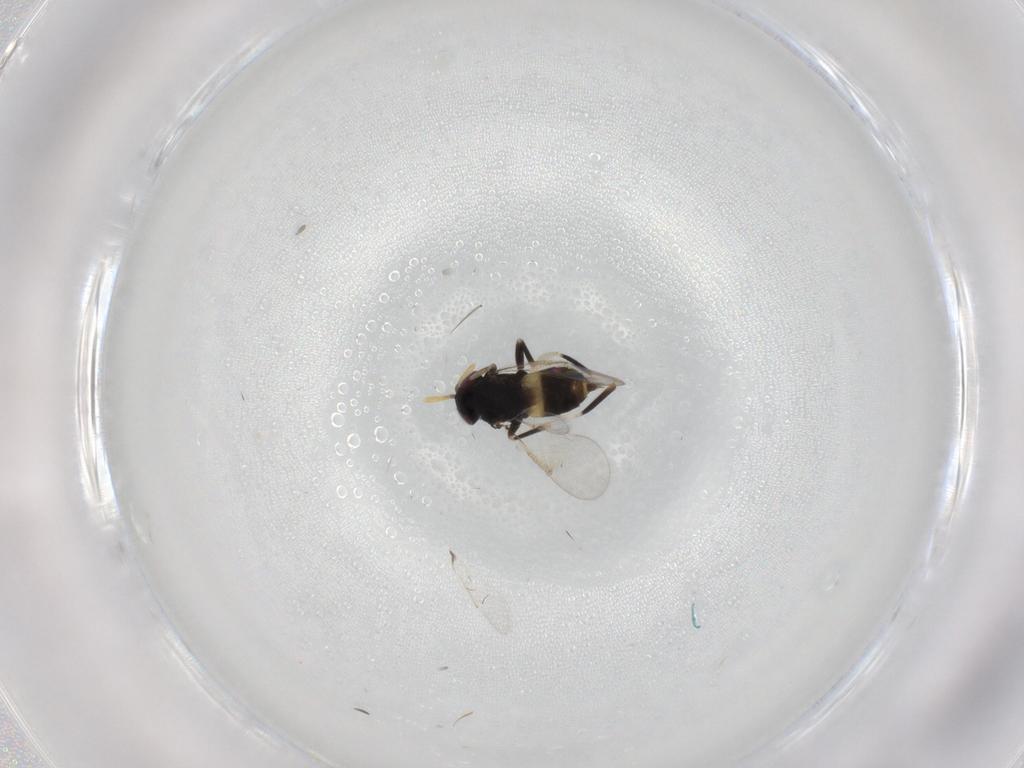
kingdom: Animalia
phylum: Arthropoda
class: Insecta
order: Hymenoptera
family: Aphelinidae
